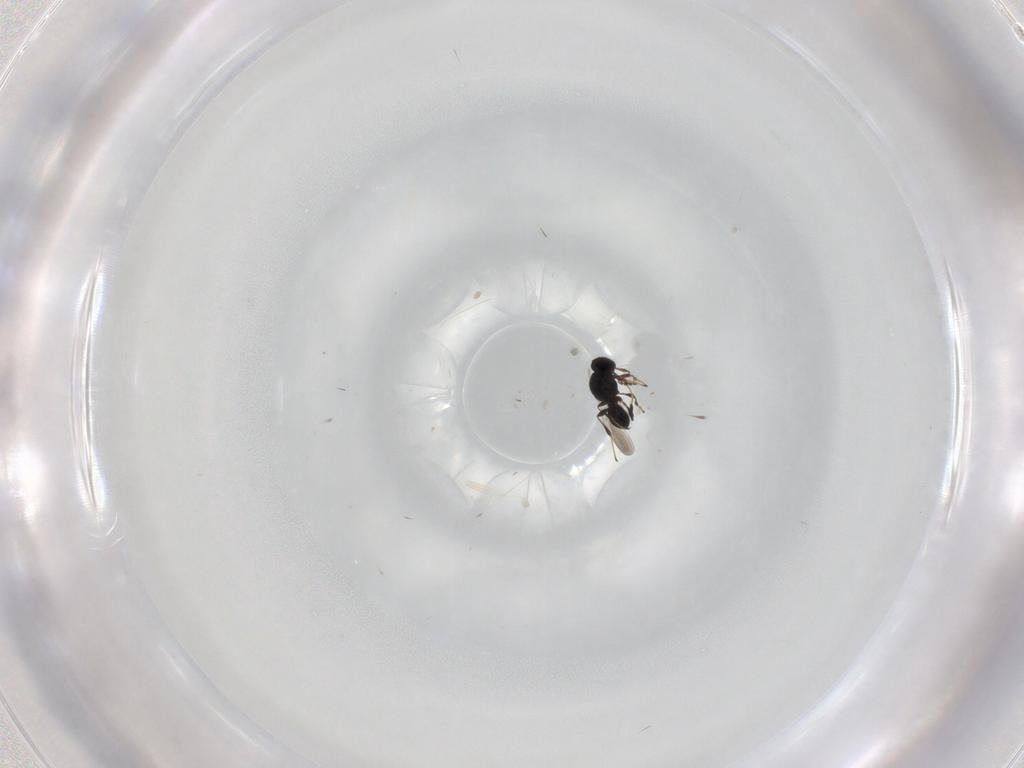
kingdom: Animalia
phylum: Arthropoda
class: Insecta
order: Hymenoptera
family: Platygastridae
